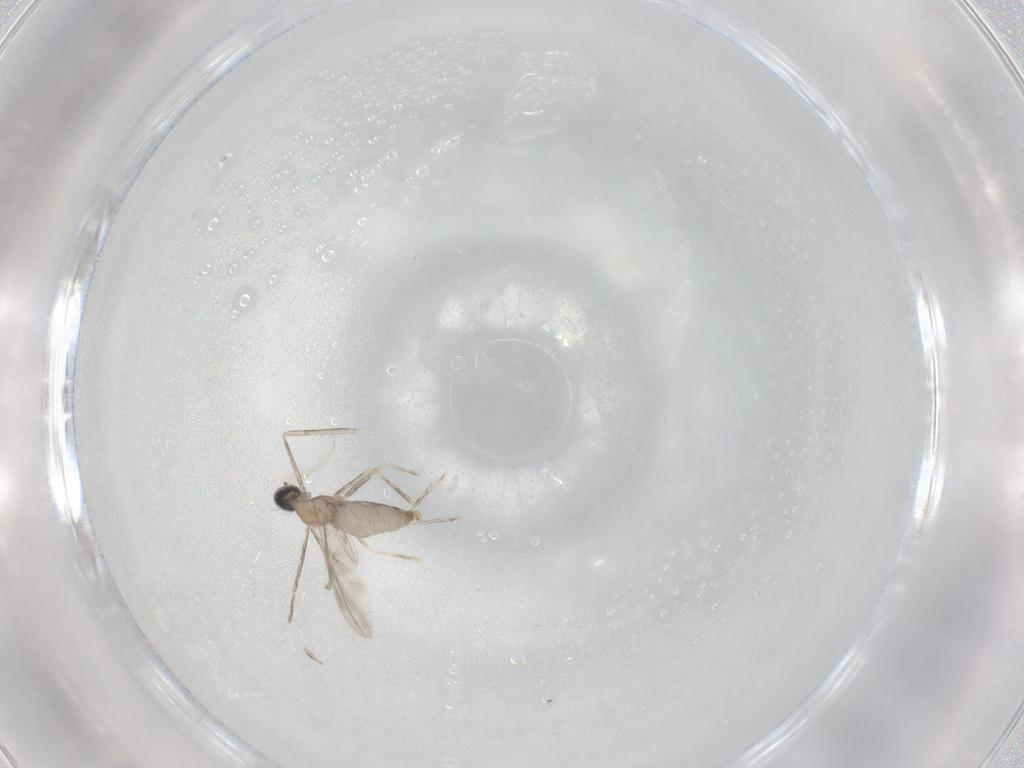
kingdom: Animalia
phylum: Arthropoda
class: Insecta
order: Diptera
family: Cecidomyiidae
